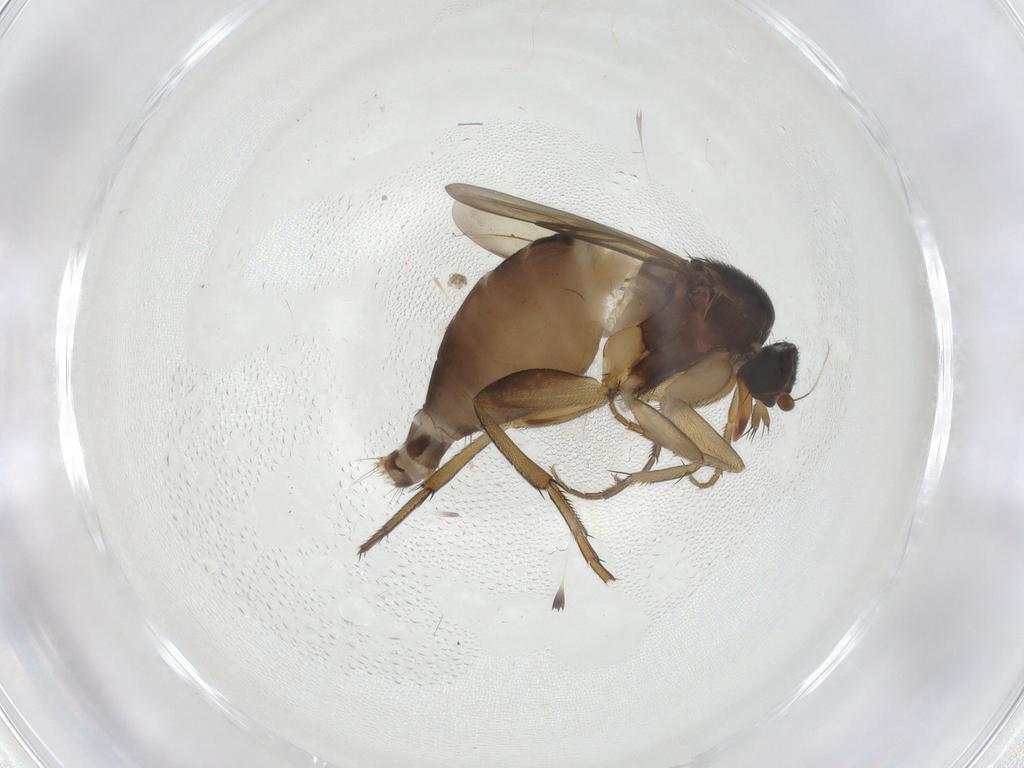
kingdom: Animalia
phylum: Arthropoda
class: Insecta
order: Diptera
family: Phoridae
